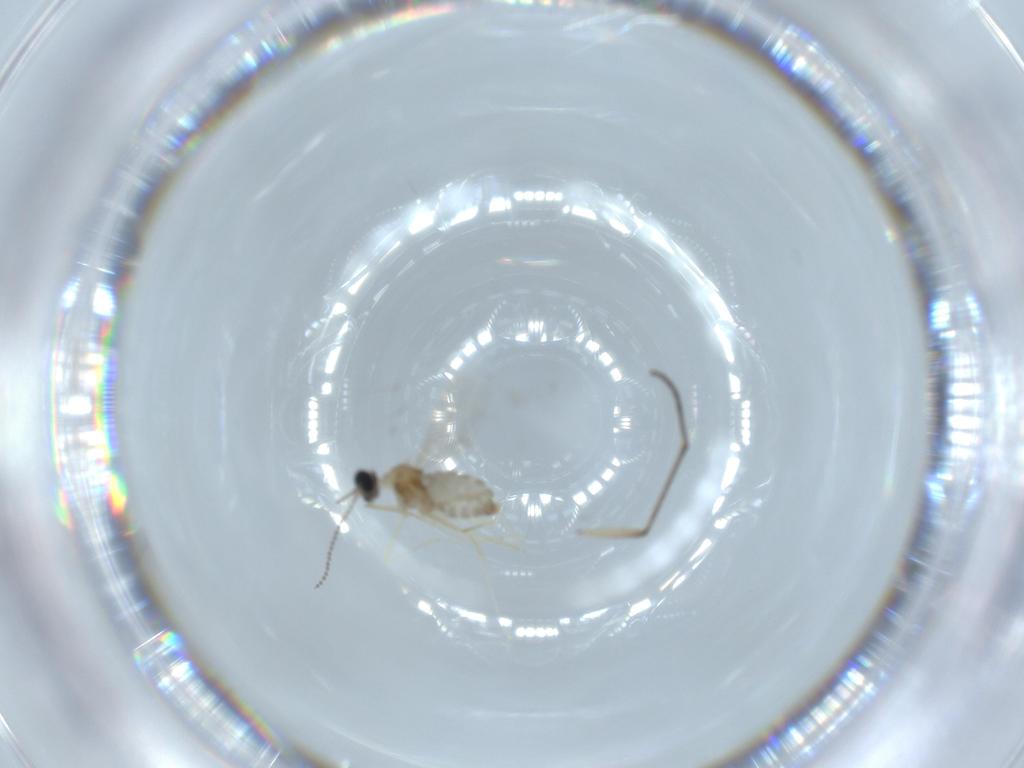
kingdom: Animalia
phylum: Arthropoda
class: Insecta
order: Diptera
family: Cecidomyiidae
